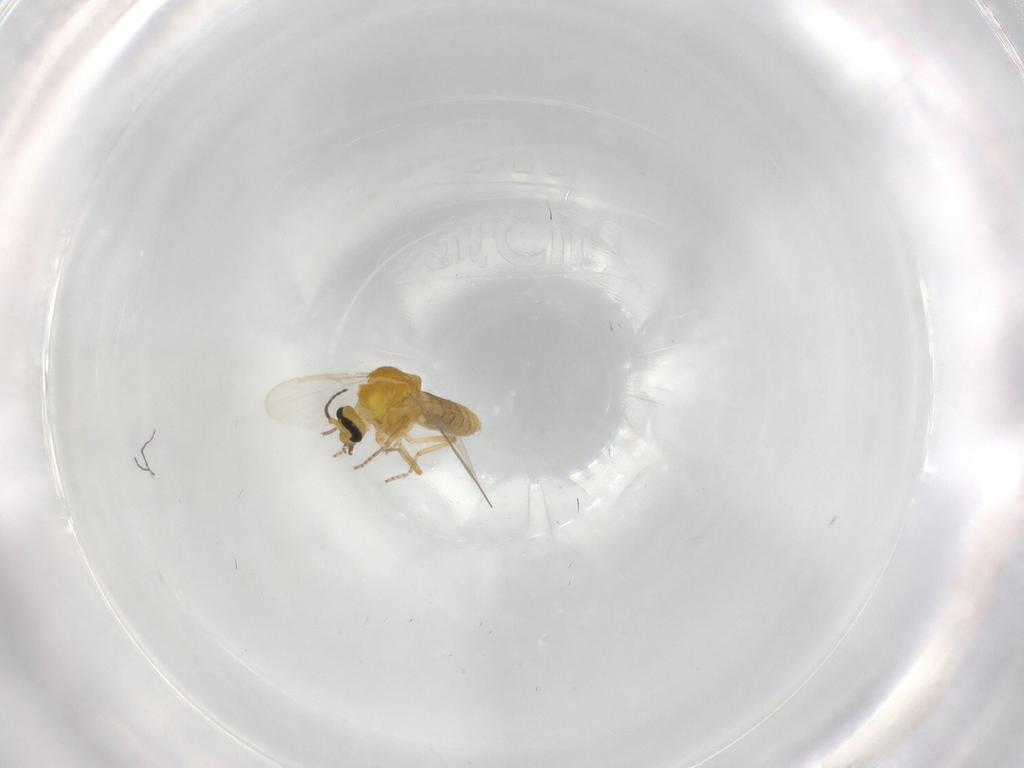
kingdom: Animalia
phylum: Arthropoda
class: Insecta
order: Diptera
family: Ceratopogonidae
